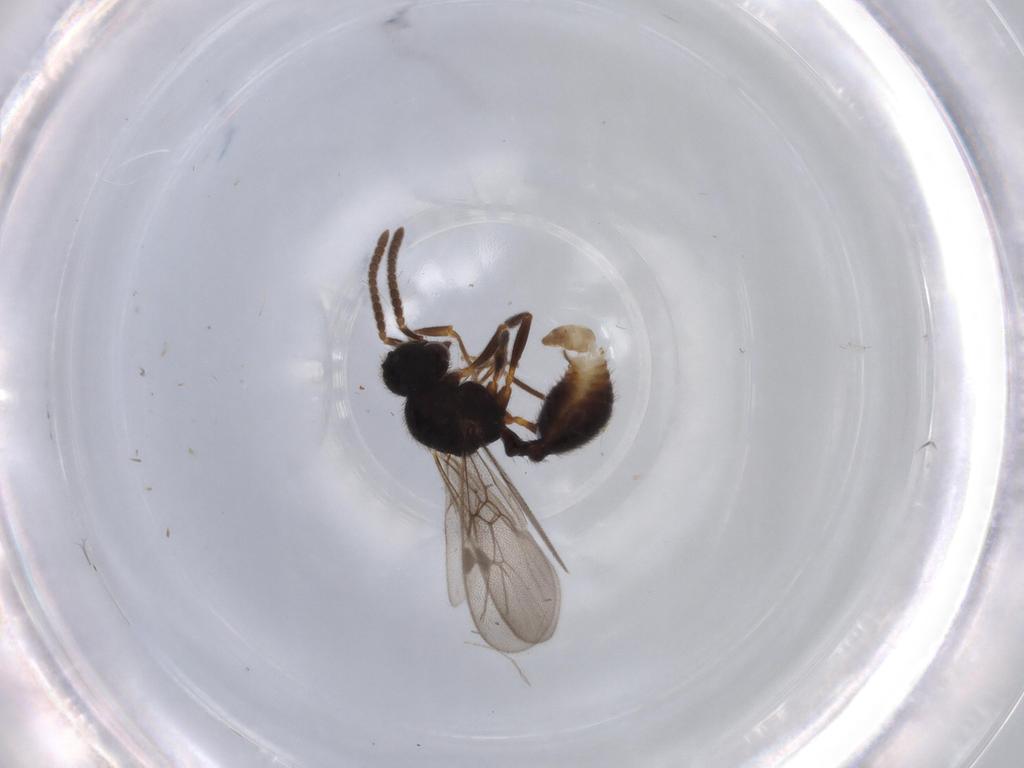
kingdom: Animalia
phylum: Arthropoda
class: Insecta
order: Hymenoptera
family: Formicidae
